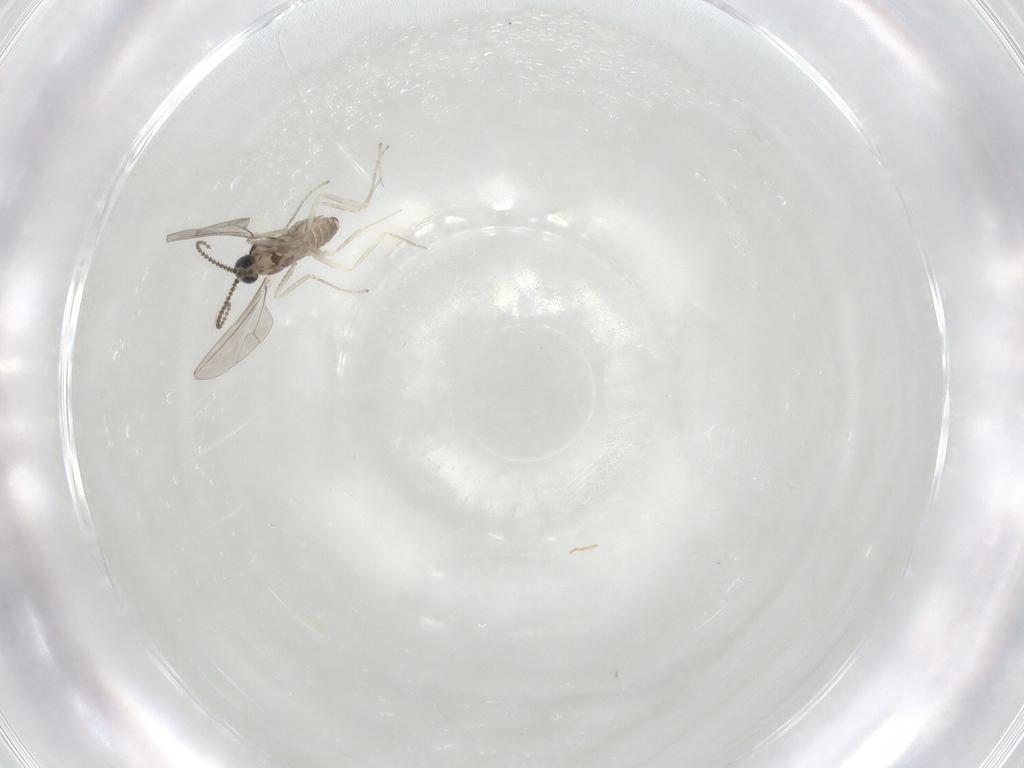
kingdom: Animalia
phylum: Arthropoda
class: Insecta
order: Diptera
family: Cecidomyiidae
